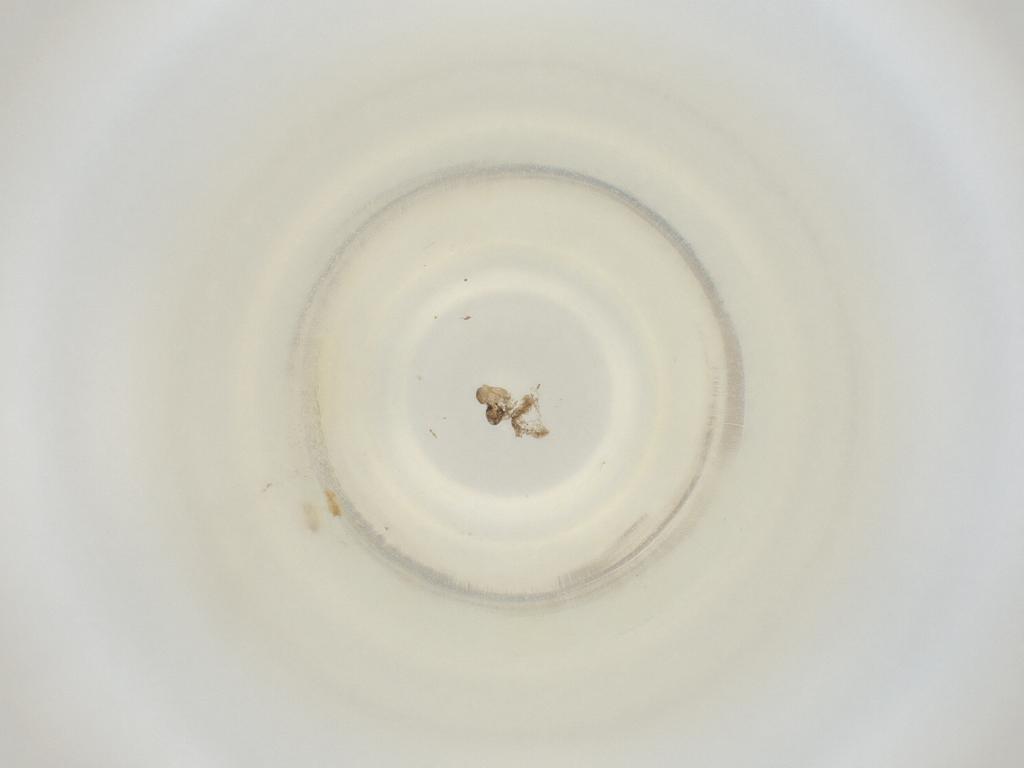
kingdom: Animalia
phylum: Arthropoda
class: Insecta
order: Diptera
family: Cecidomyiidae
